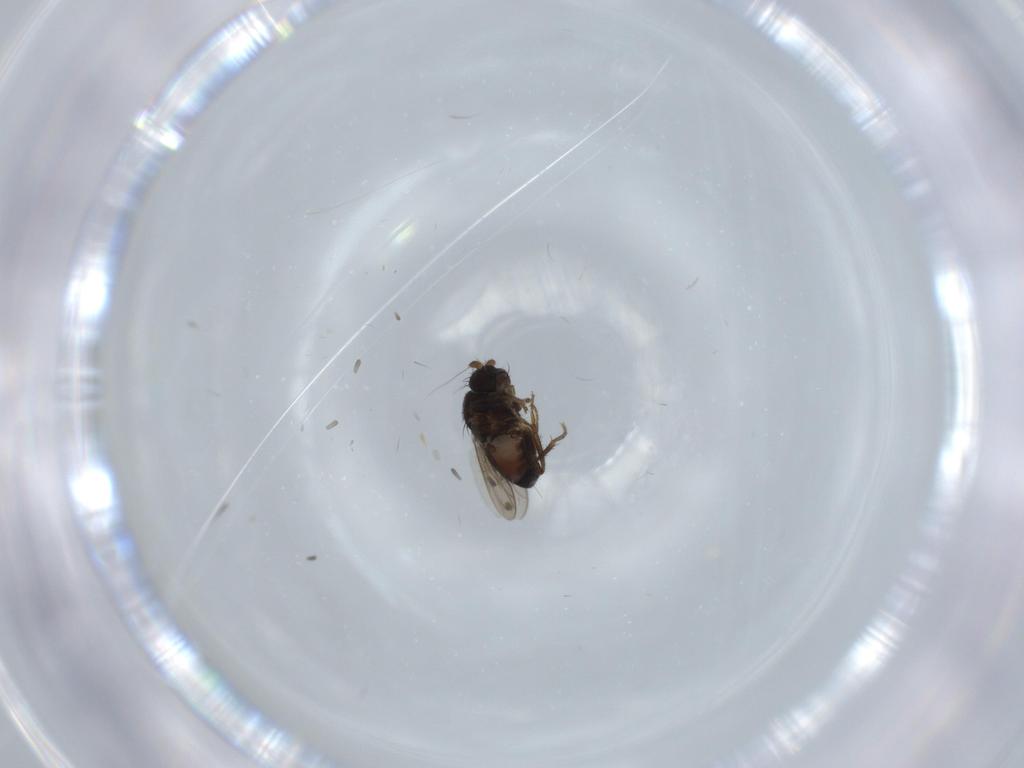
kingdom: Animalia
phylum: Arthropoda
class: Insecta
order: Diptera
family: Sphaeroceridae
